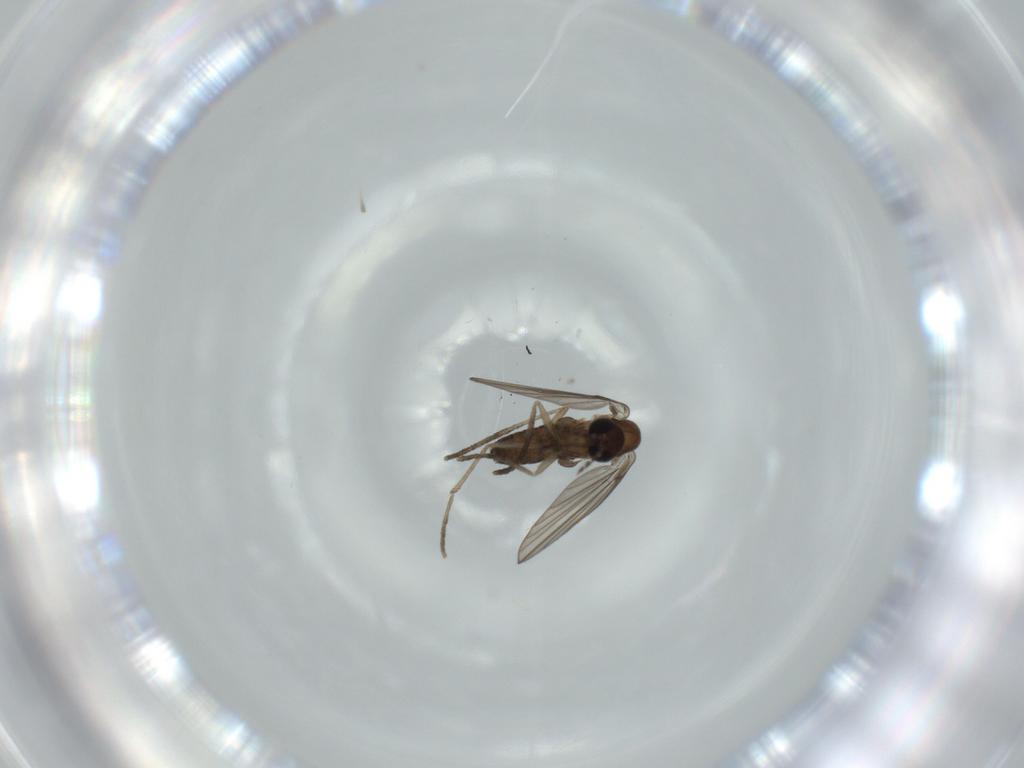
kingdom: Animalia
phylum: Arthropoda
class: Insecta
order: Diptera
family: Psychodidae
